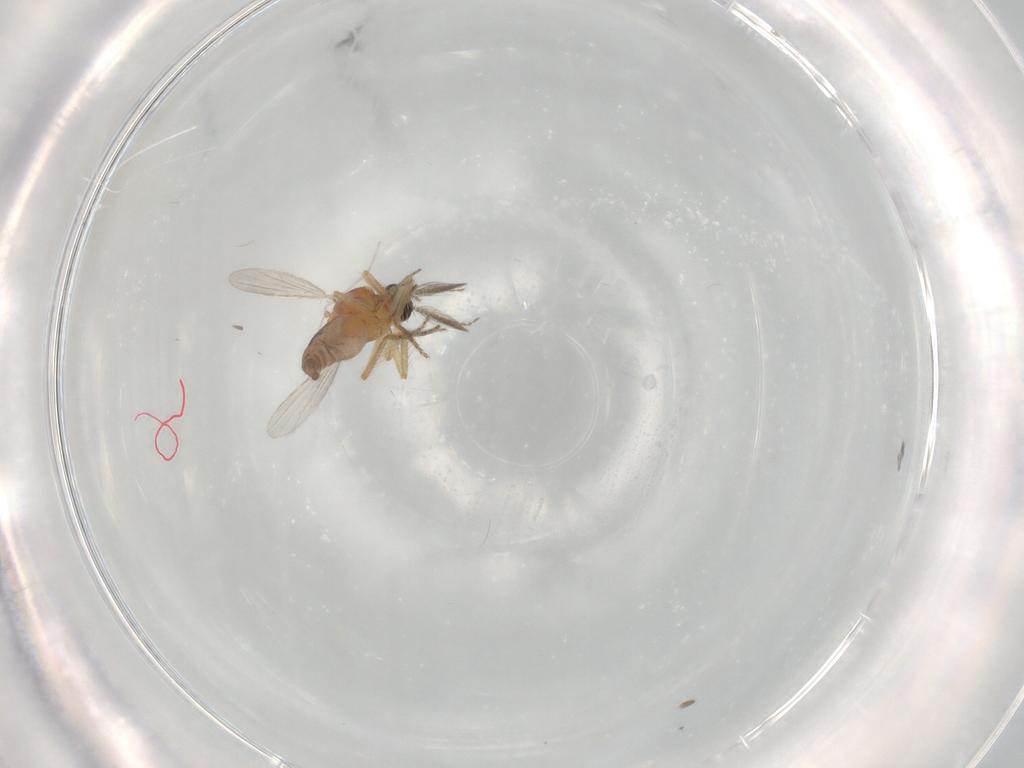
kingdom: Animalia
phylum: Arthropoda
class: Insecta
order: Diptera
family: Ceratopogonidae
